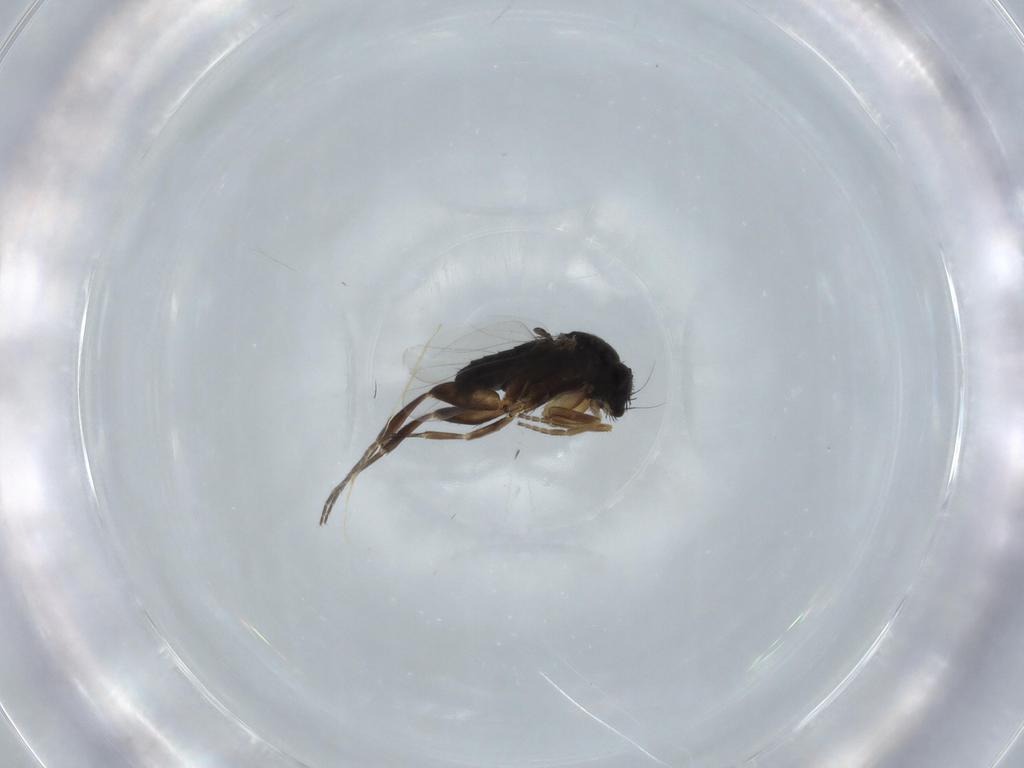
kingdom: Animalia
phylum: Arthropoda
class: Insecta
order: Diptera
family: Phoridae
